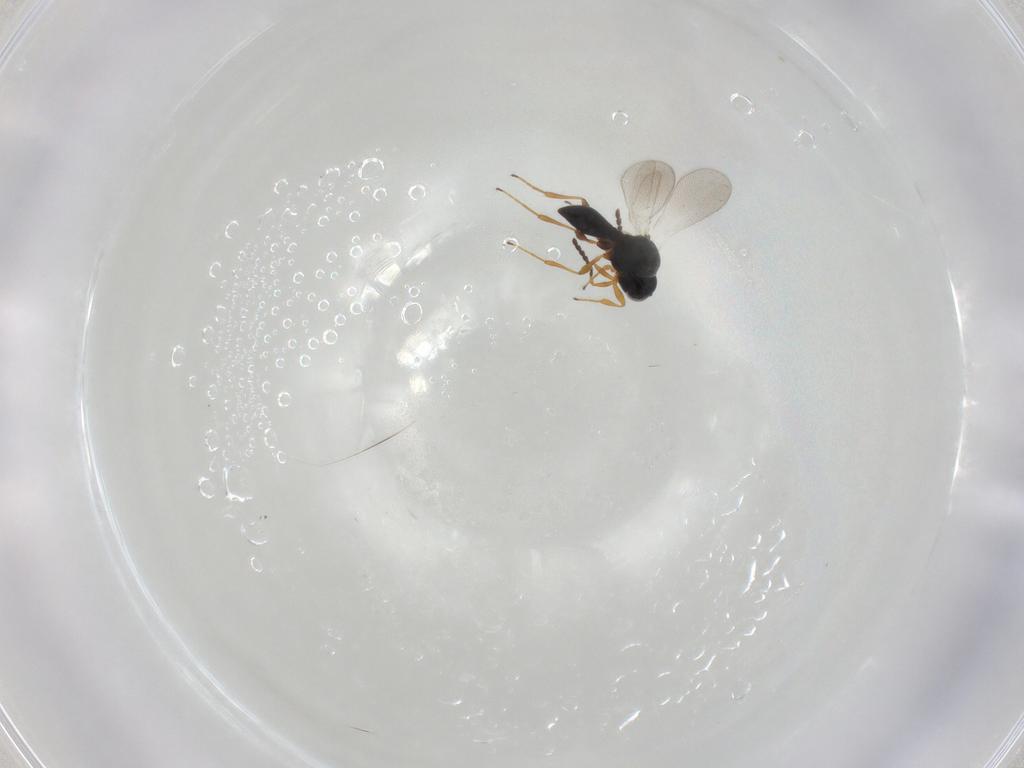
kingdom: Animalia
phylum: Arthropoda
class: Insecta
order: Hymenoptera
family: Platygastridae
